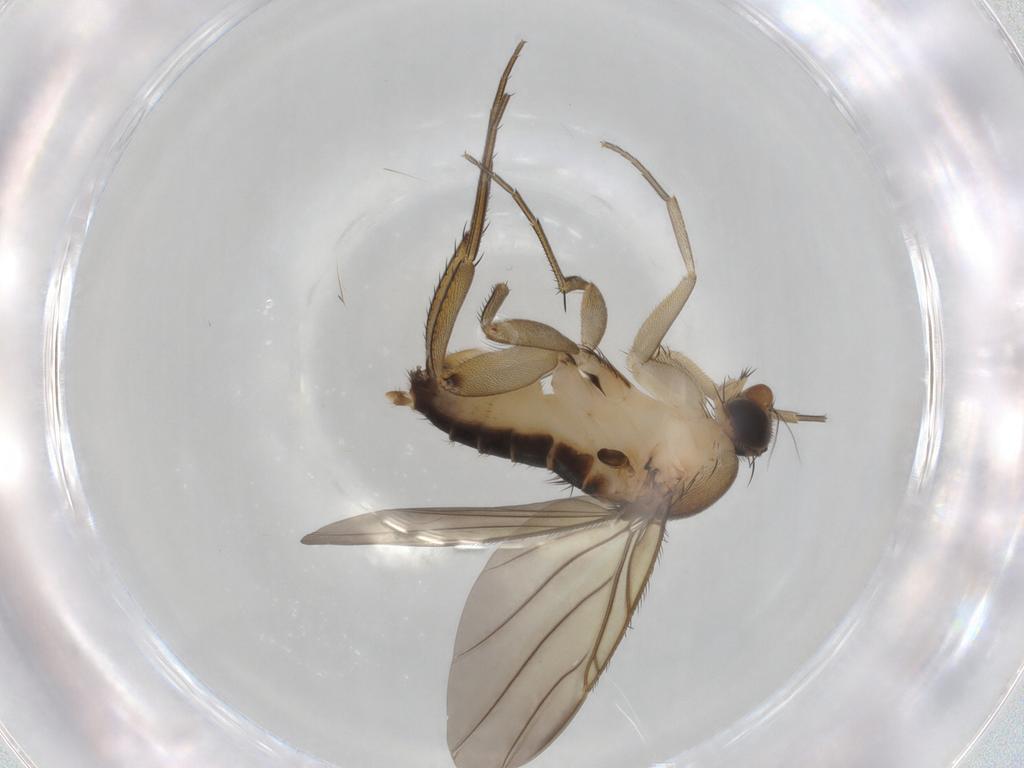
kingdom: Animalia
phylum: Arthropoda
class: Insecta
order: Diptera
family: Cecidomyiidae
